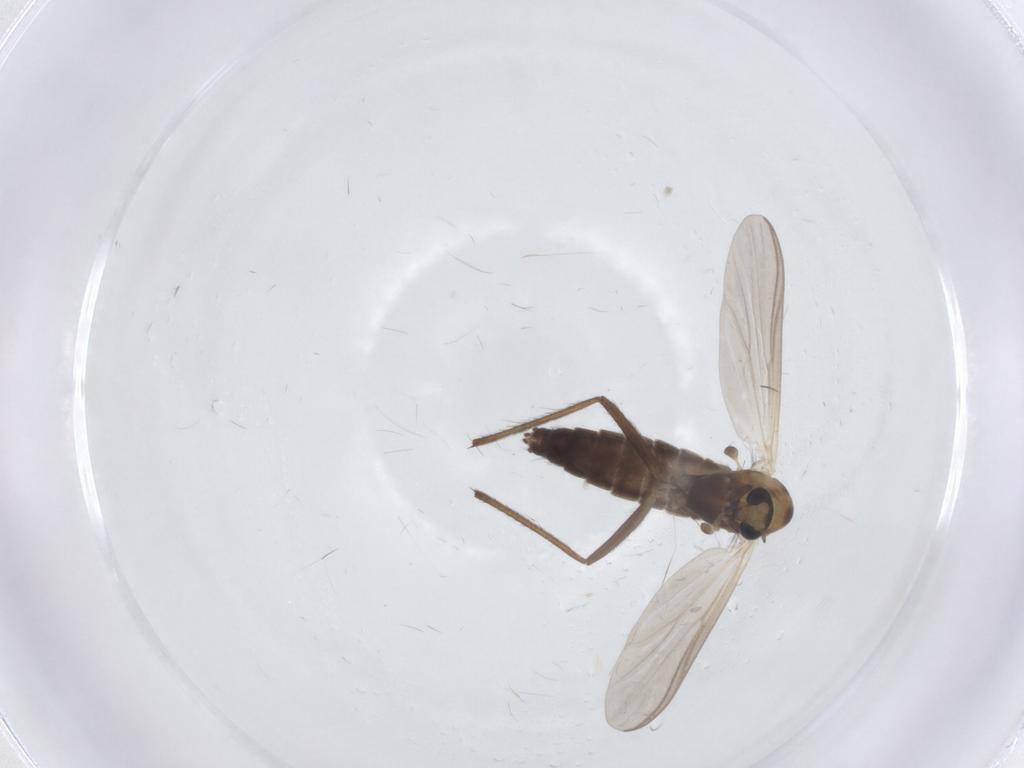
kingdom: Animalia
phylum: Arthropoda
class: Insecta
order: Diptera
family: Chironomidae
